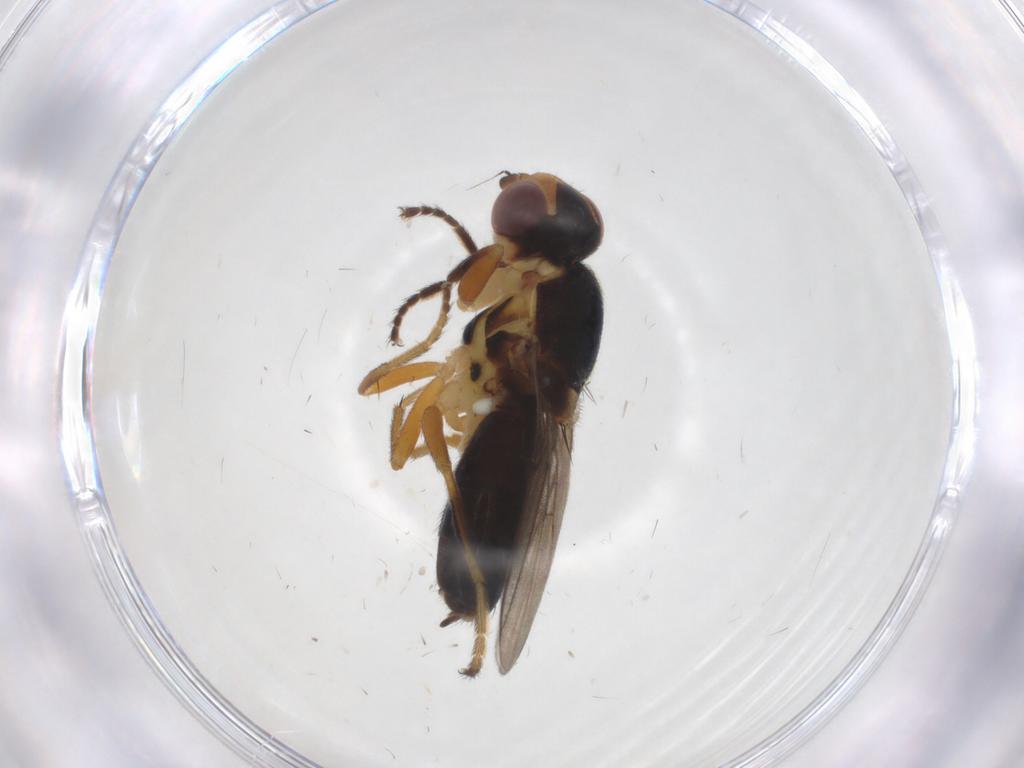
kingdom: Animalia
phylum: Arthropoda
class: Insecta
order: Diptera
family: Chloropidae
